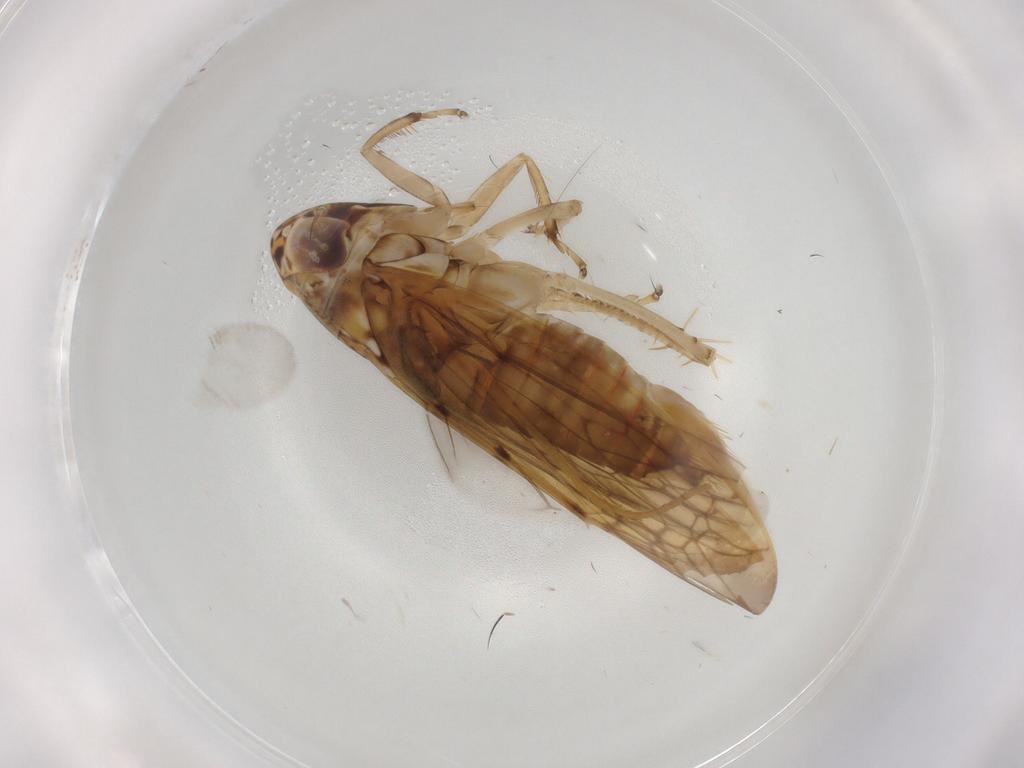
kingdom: Animalia
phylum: Arthropoda
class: Insecta
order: Hemiptera
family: Cicadellidae
